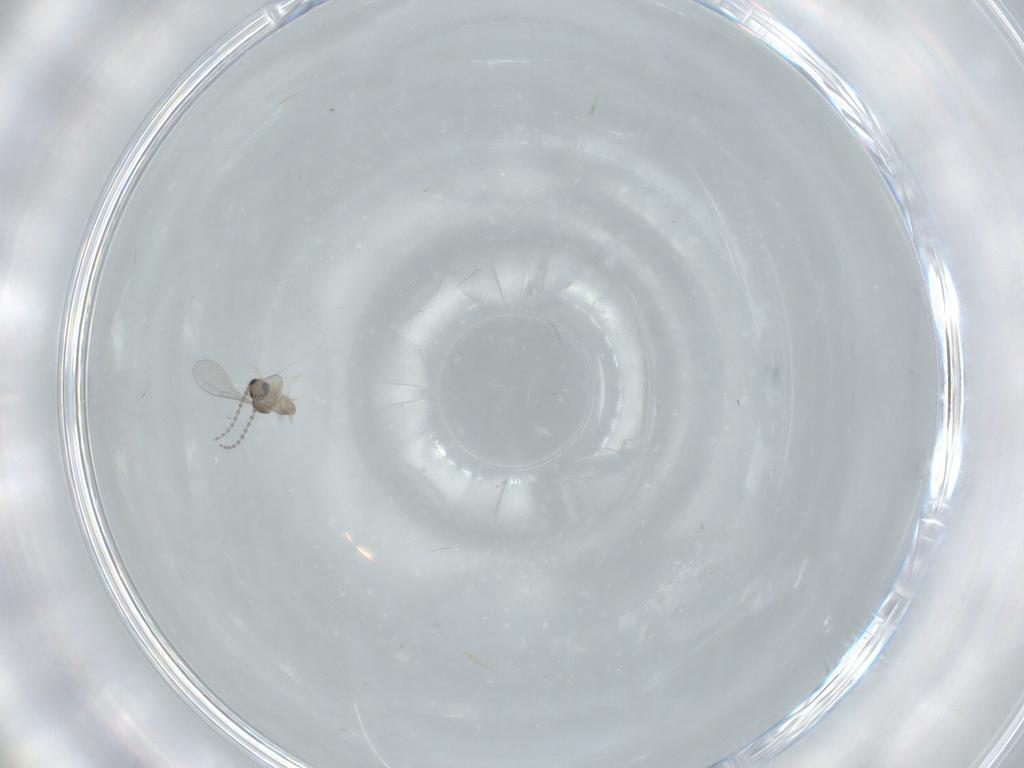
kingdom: Animalia
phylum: Arthropoda
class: Insecta
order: Diptera
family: Cecidomyiidae
